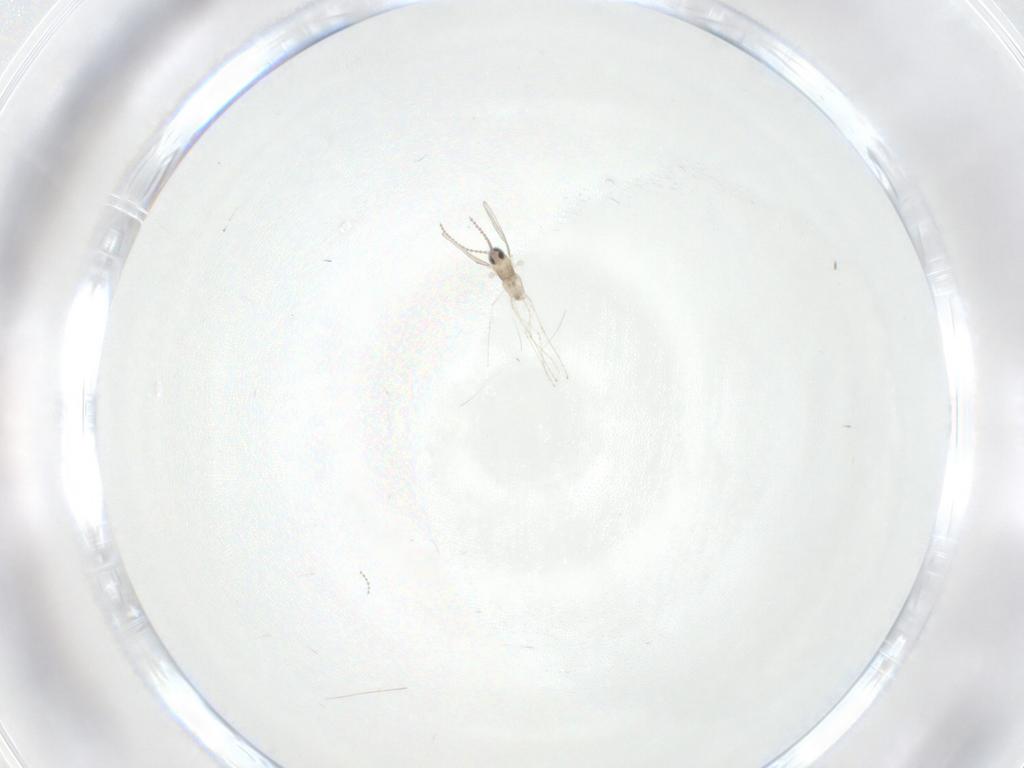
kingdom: Animalia
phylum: Arthropoda
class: Insecta
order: Diptera
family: Cecidomyiidae
